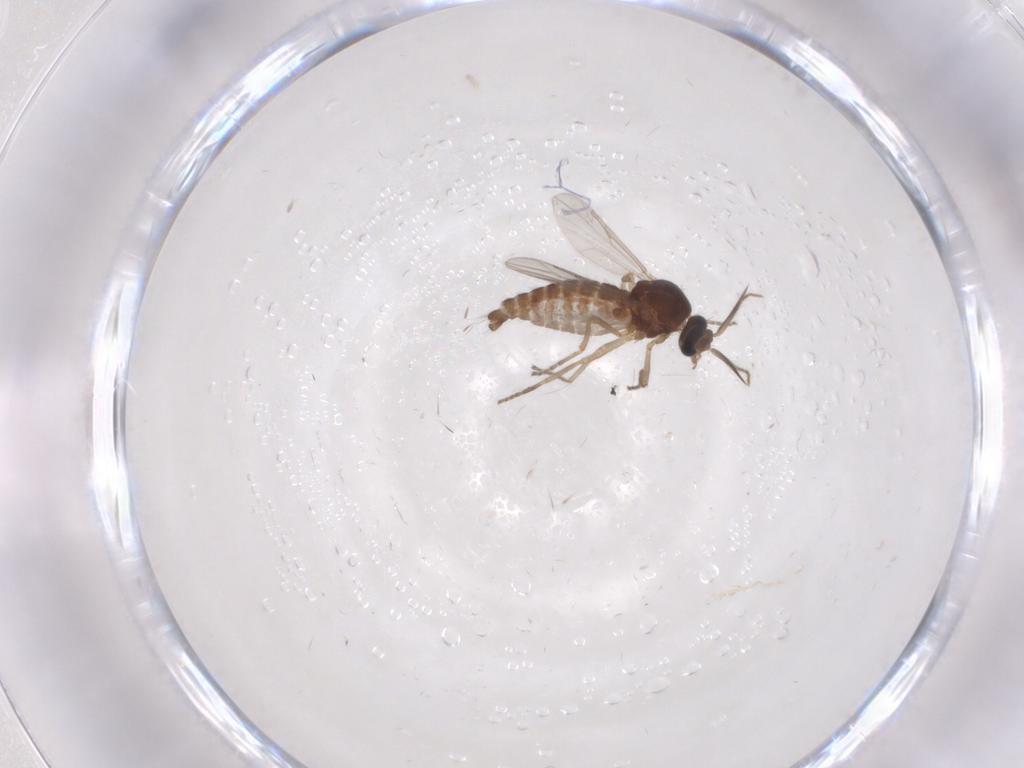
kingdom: Animalia
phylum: Arthropoda
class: Insecta
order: Diptera
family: Ceratopogonidae
